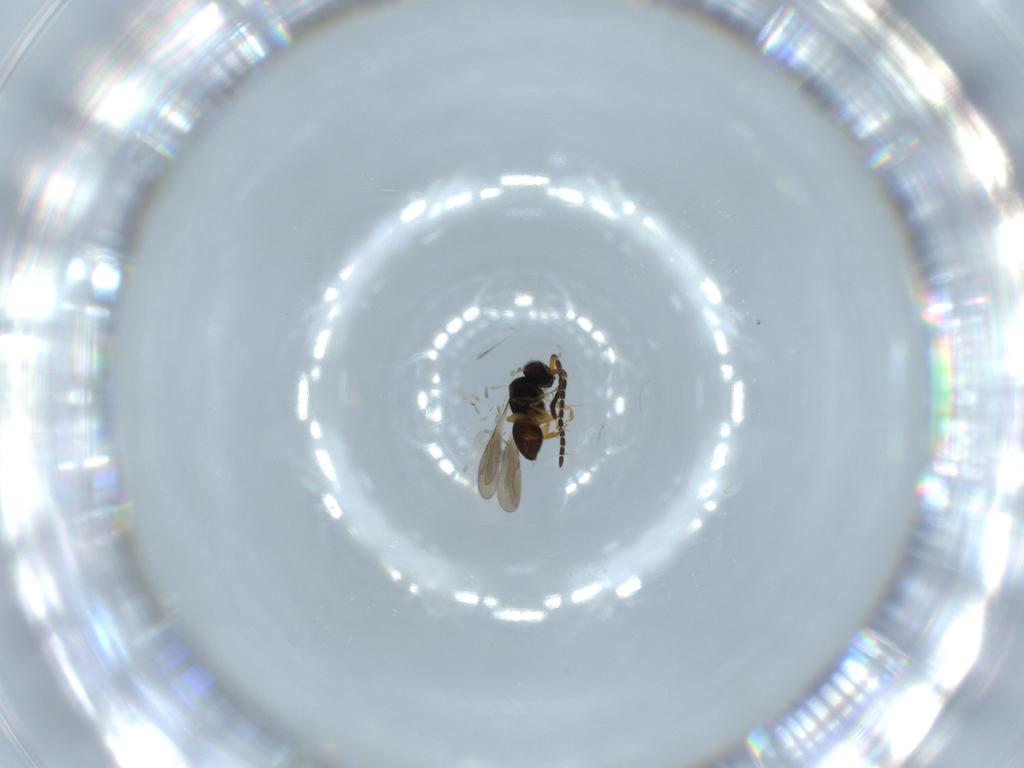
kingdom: Animalia
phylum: Arthropoda
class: Insecta
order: Hymenoptera
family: Ceraphronidae
